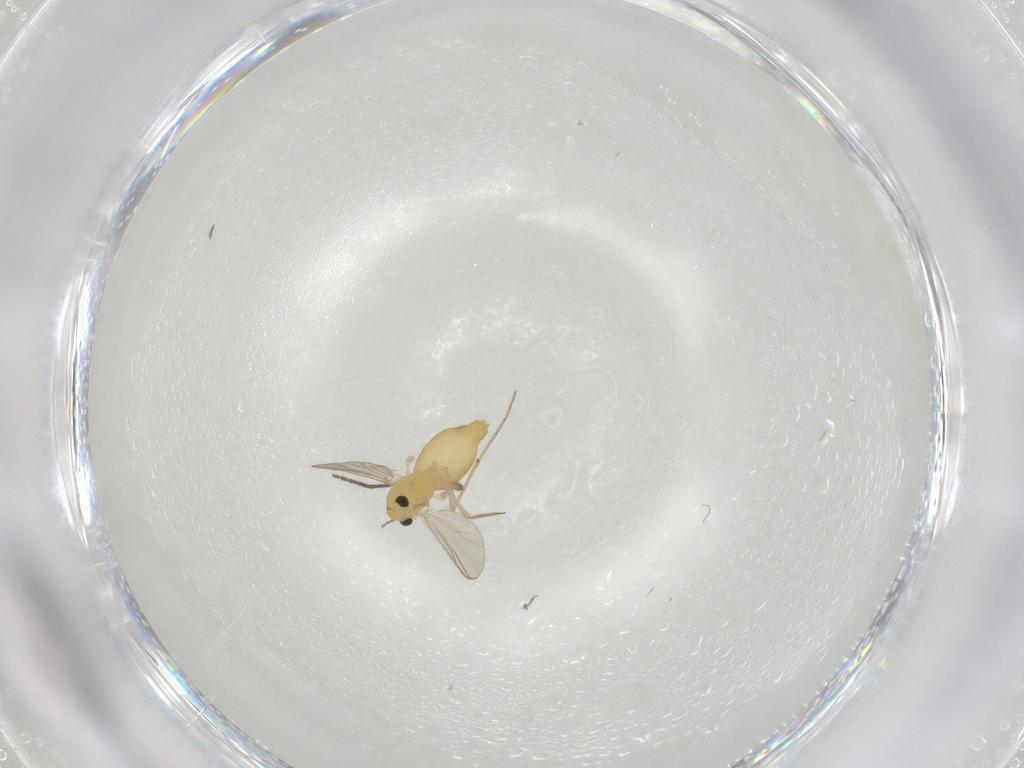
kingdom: Animalia
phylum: Arthropoda
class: Insecta
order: Diptera
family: Chironomidae
